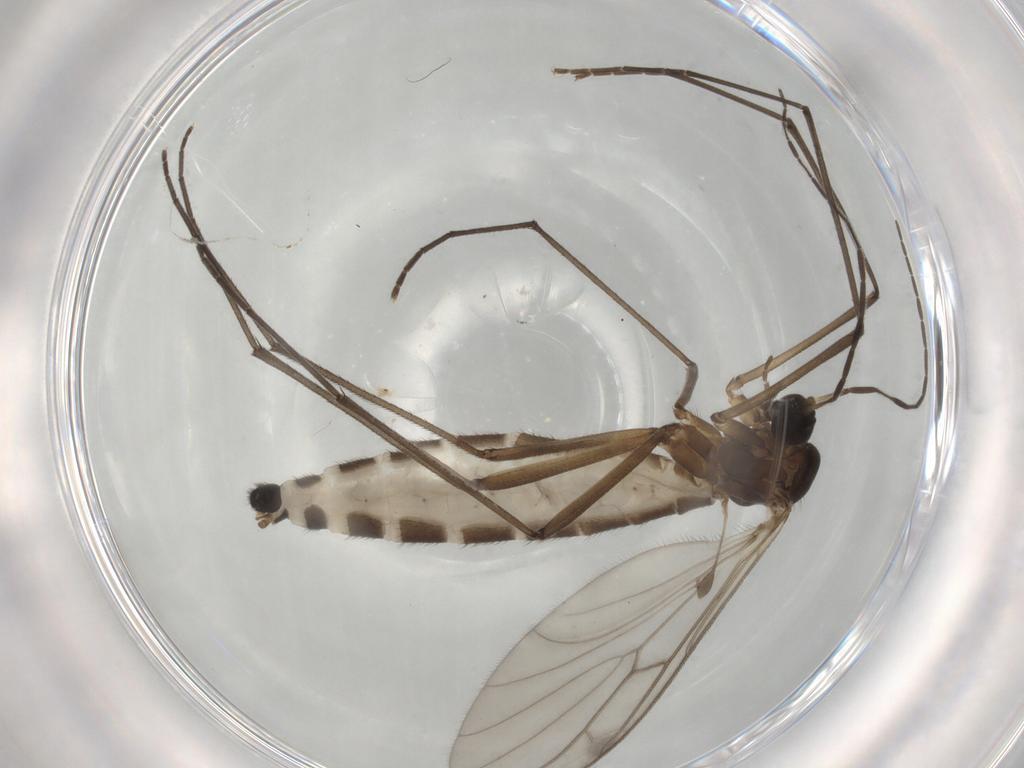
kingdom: Animalia
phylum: Arthropoda
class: Insecta
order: Diptera
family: Bolitophilidae
